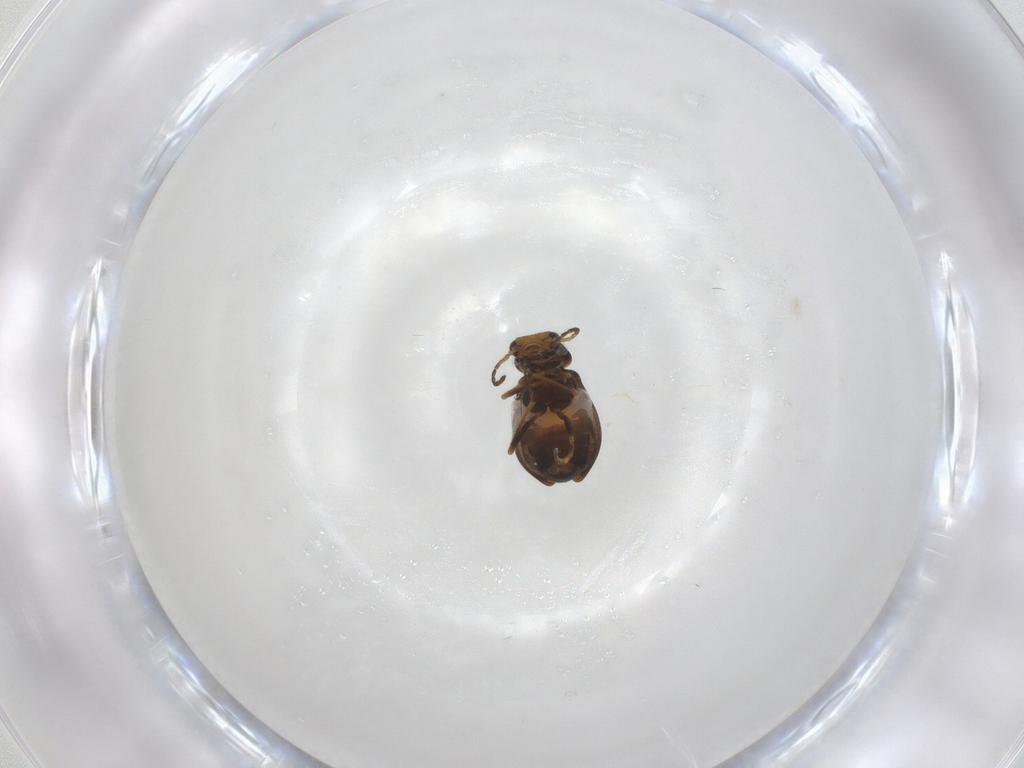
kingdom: Animalia
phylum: Arthropoda
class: Insecta
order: Coleoptera
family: Melyridae
